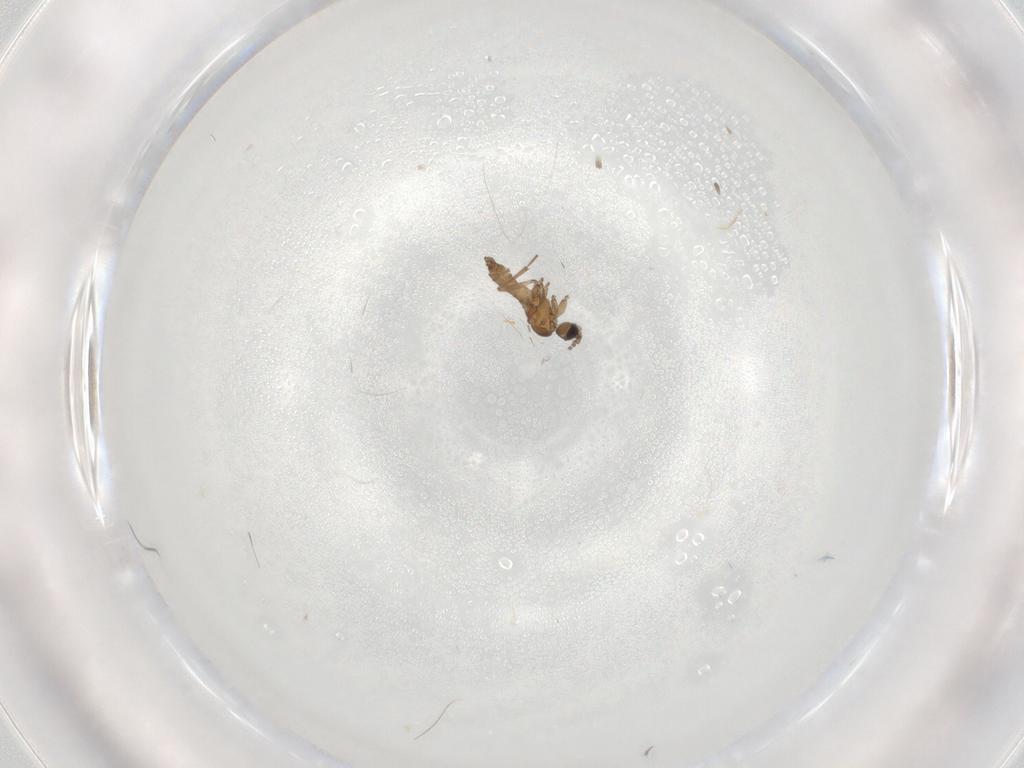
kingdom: Animalia
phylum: Arthropoda
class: Insecta
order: Diptera
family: Sciaridae
